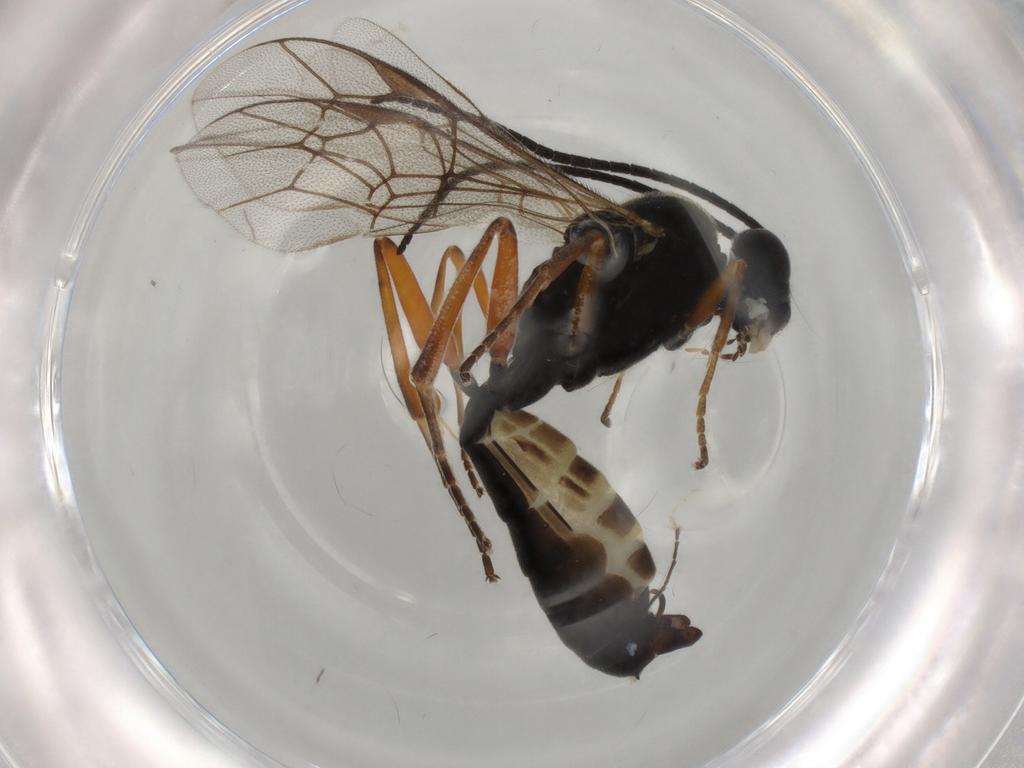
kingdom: Animalia
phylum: Arthropoda
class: Insecta
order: Hymenoptera
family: Ichneumonidae
